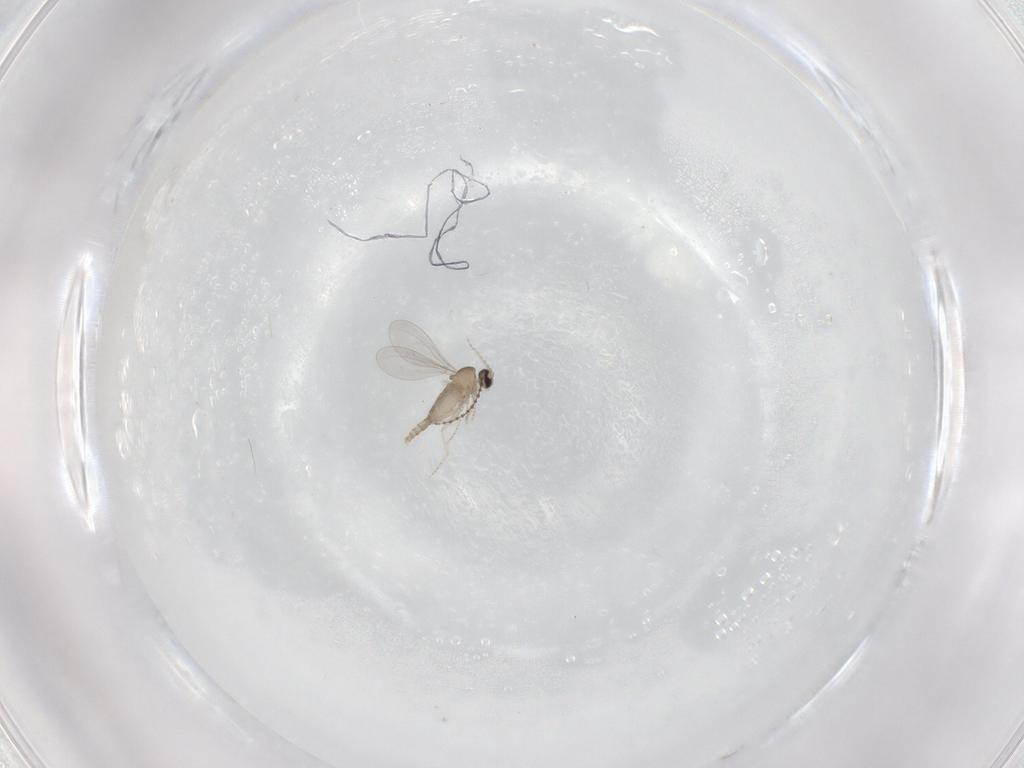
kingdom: Animalia
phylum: Arthropoda
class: Insecta
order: Diptera
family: Cecidomyiidae
